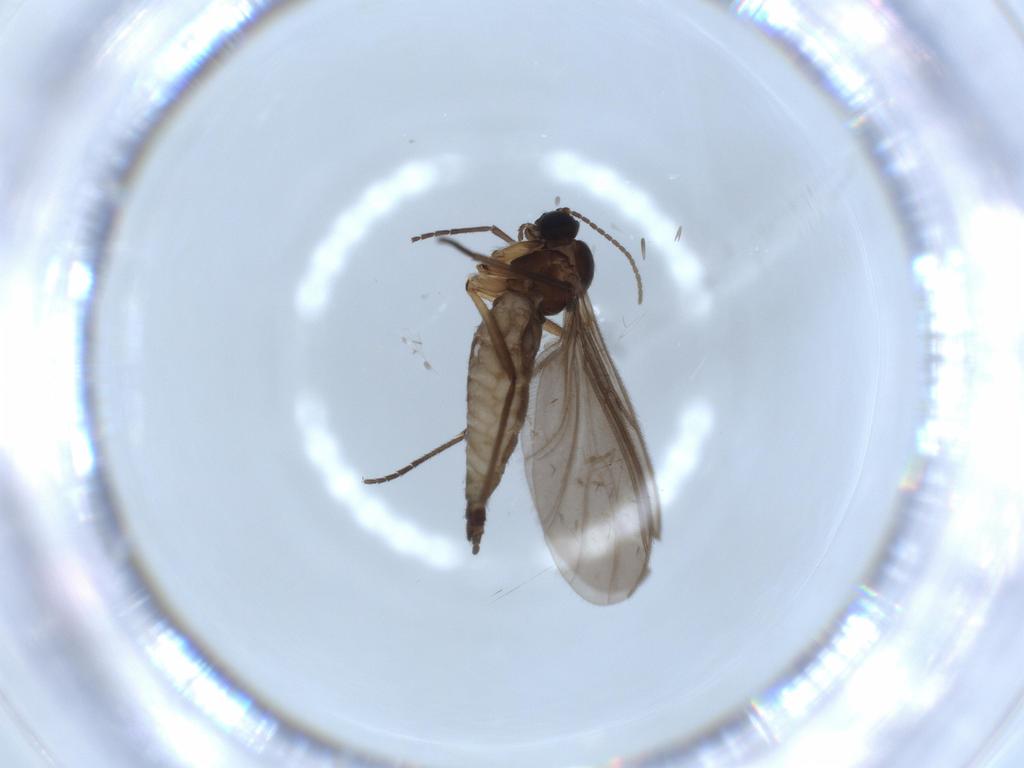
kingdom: Animalia
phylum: Arthropoda
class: Insecta
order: Diptera
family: Sciaridae
